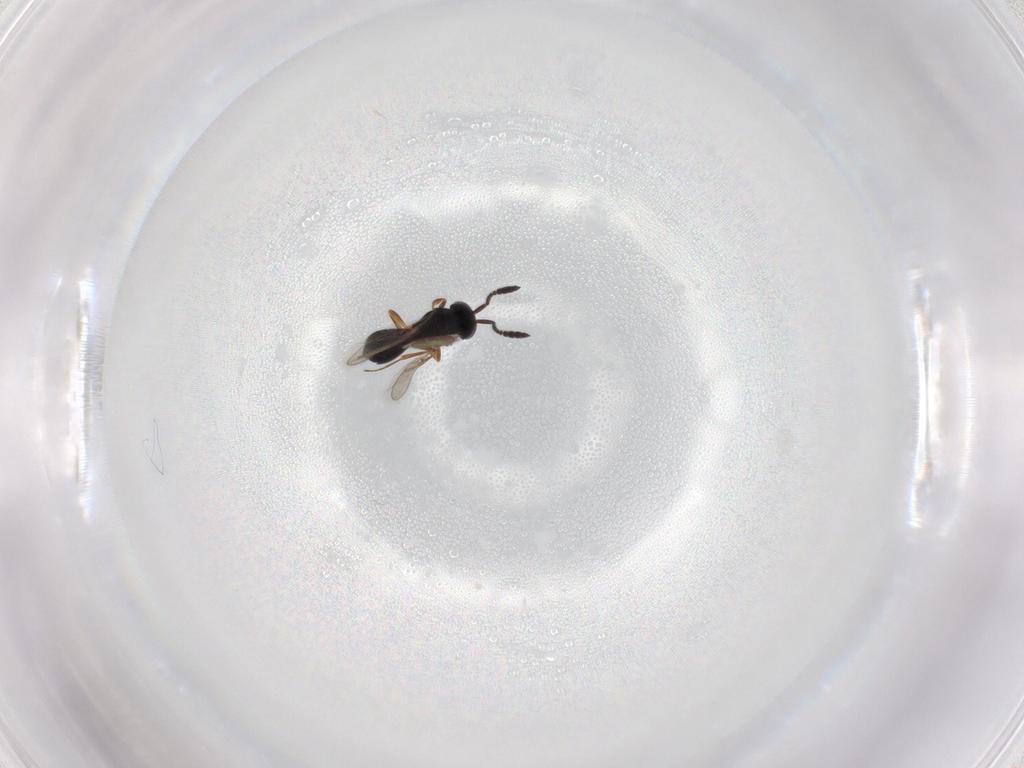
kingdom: Animalia
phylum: Arthropoda
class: Insecta
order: Hymenoptera
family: Scelionidae
